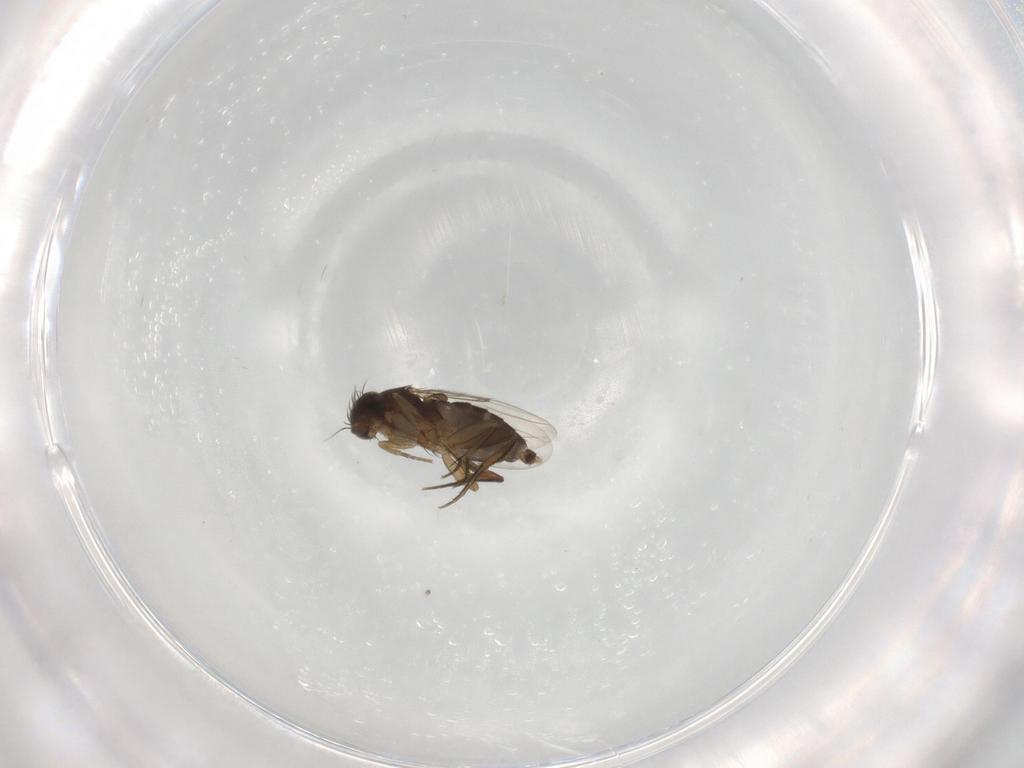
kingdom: Animalia
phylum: Arthropoda
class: Insecta
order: Diptera
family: Phoridae
